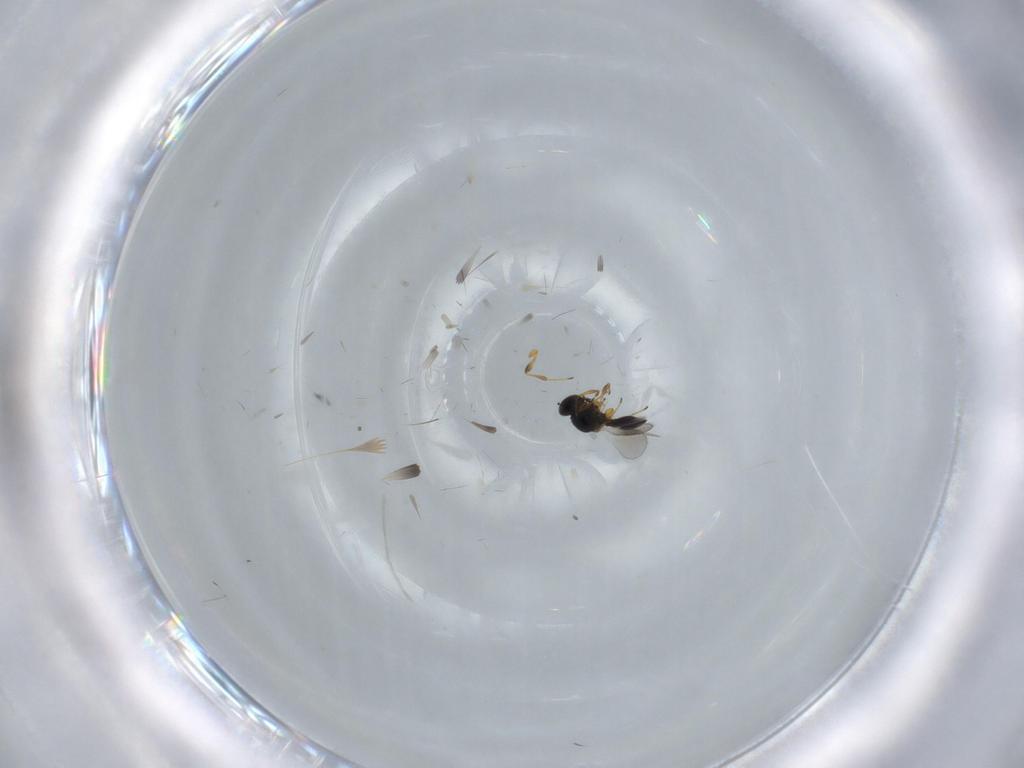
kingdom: Animalia
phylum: Arthropoda
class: Insecta
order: Hymenoptera
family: Platygastridae
